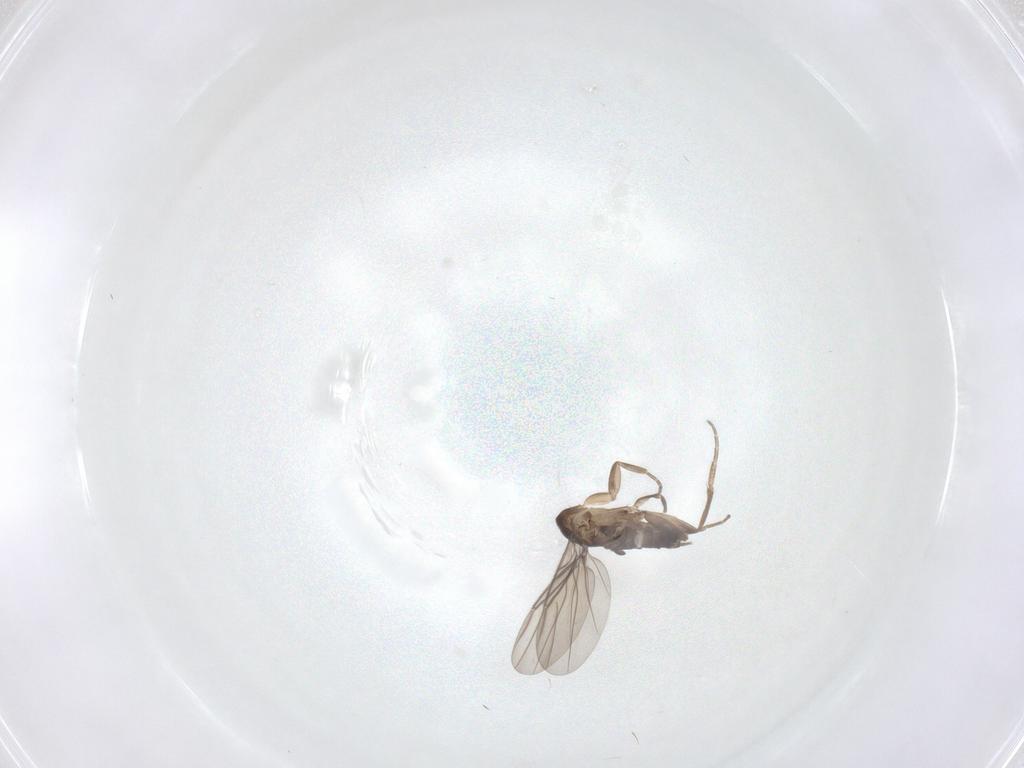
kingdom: Animalia
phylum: Arthropoda
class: Insecta
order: Diptera
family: Phoridae
